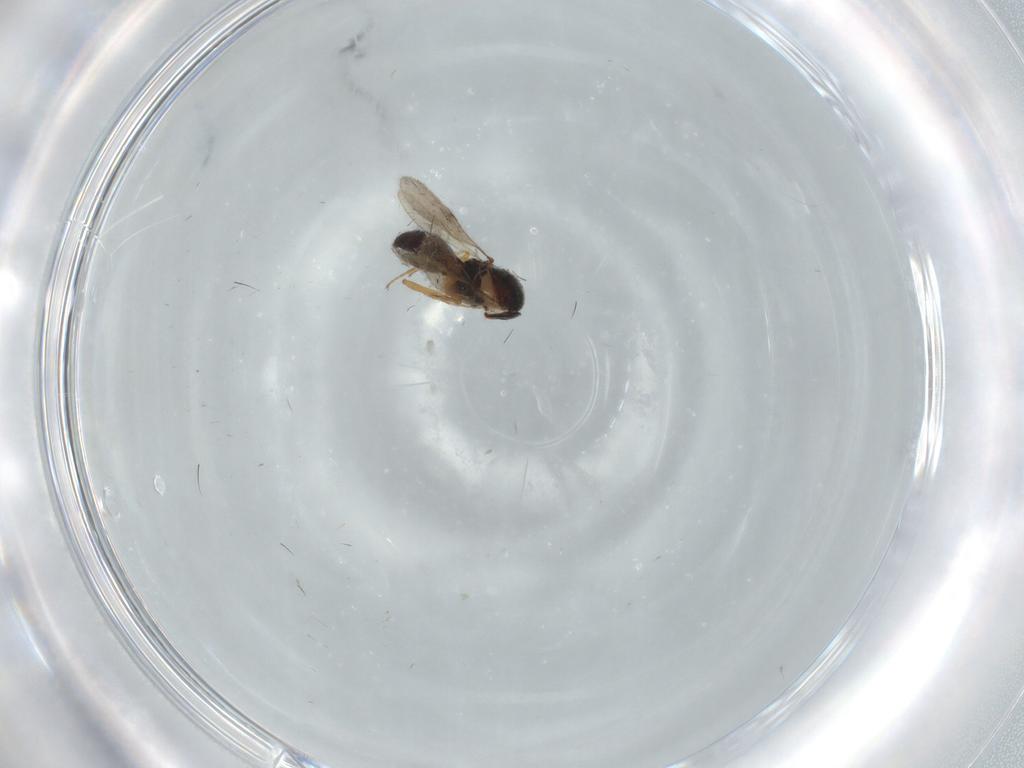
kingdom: Animalia
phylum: Arthropoda
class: Insecta
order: Hymenoptera
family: Scelionidae
